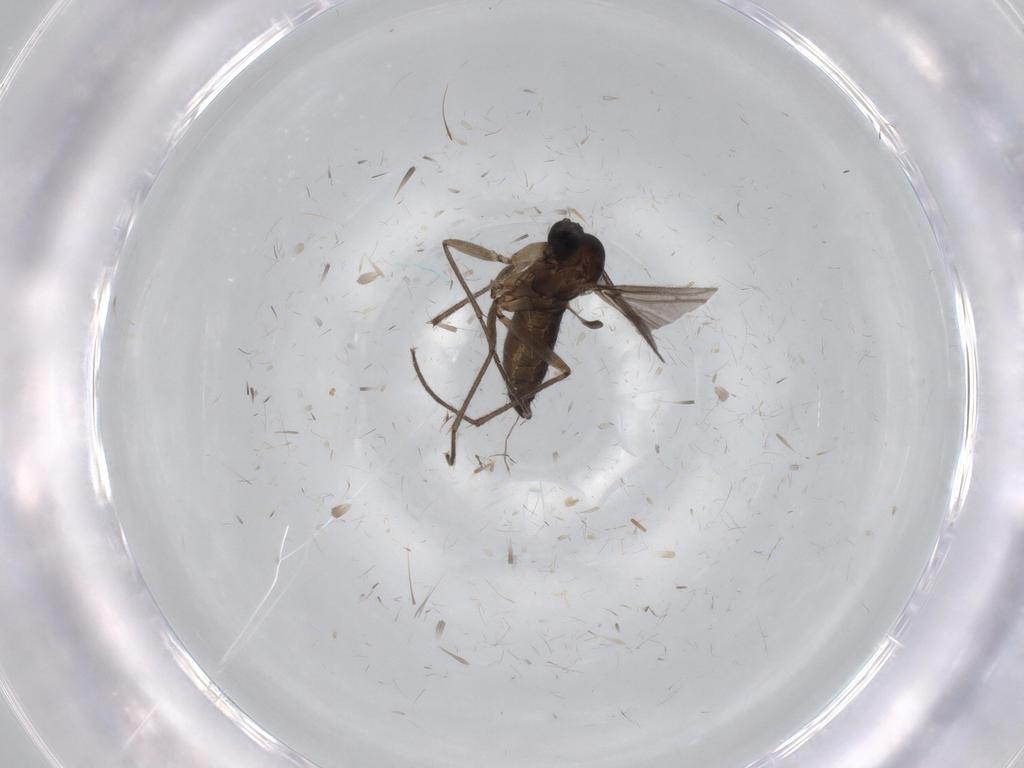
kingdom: Animalia
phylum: Arthropoda
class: Insecta
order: Diptera
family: Sciaridae
